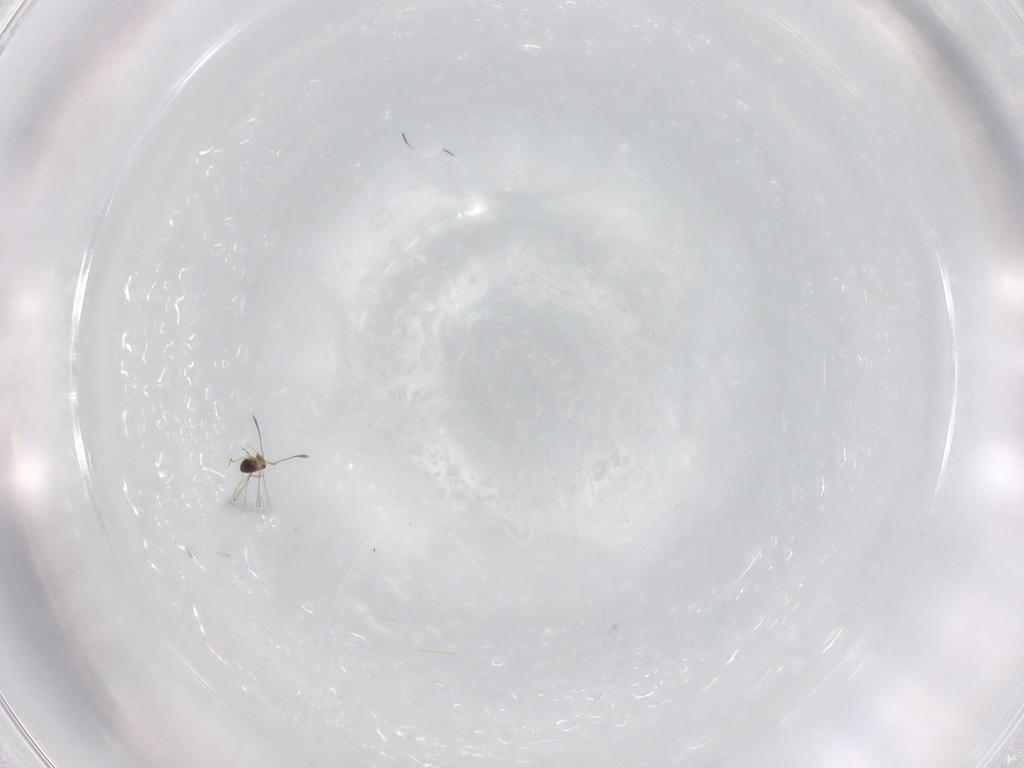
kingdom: Animalia
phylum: Arthropoda
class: Insecta
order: Hymenoptera
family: Mymaridae
